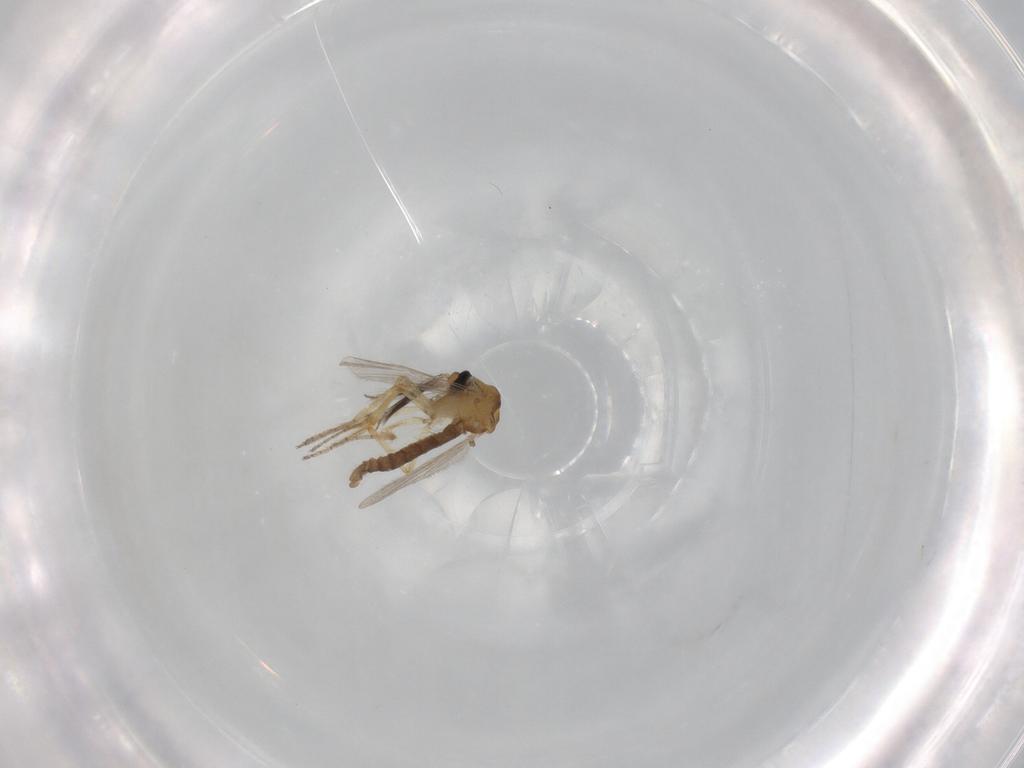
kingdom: Animalia
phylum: Arthropoda
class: Insecta
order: Diptera
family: Ceratopogonidae
